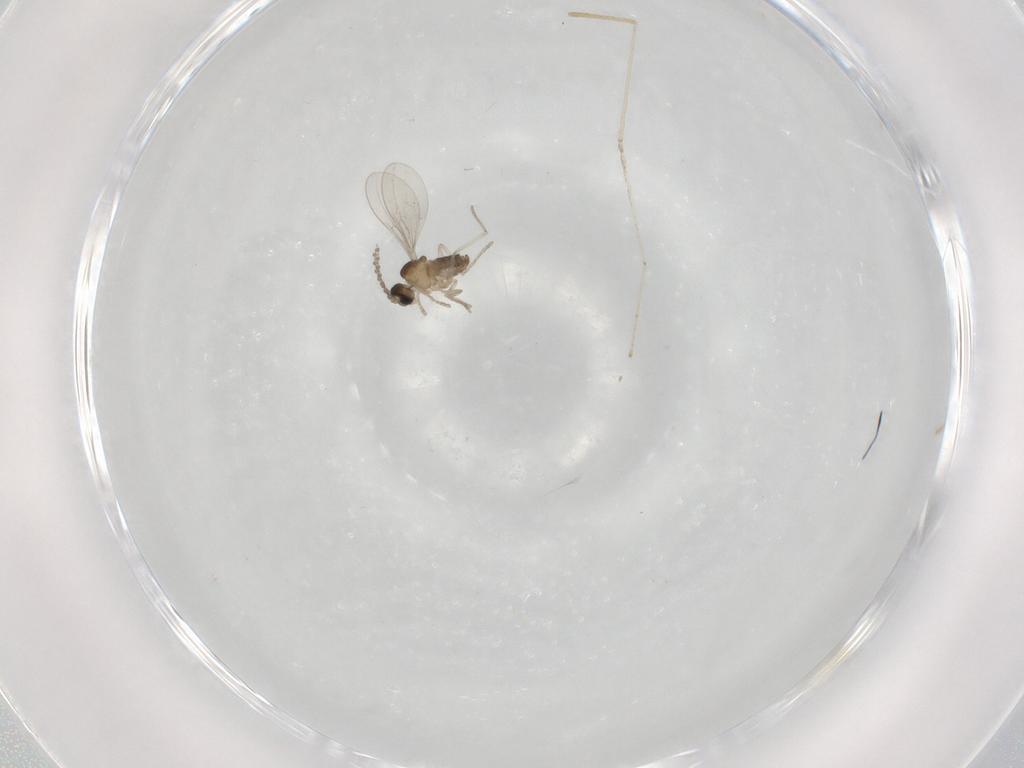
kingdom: Animalia
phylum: Arthropoda
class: Insecta
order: Diptera
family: Cecidomyiidae
